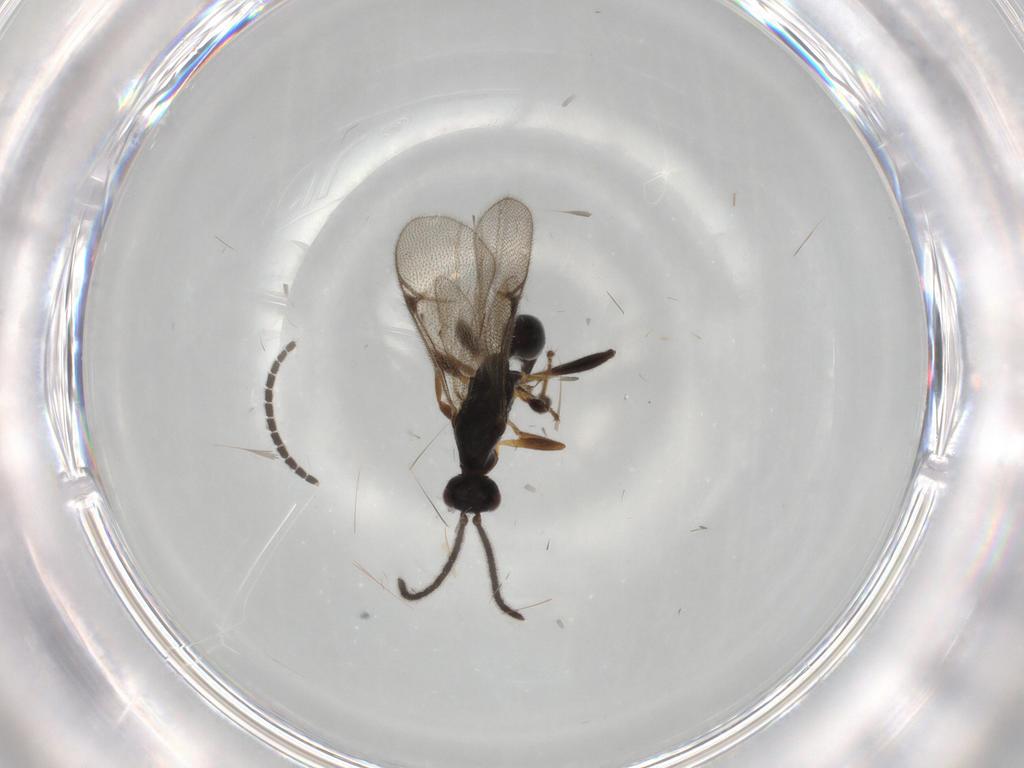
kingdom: Animalia
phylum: Arthropoda
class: Insecta
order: Hymenoptera
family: Proctotrupidae
